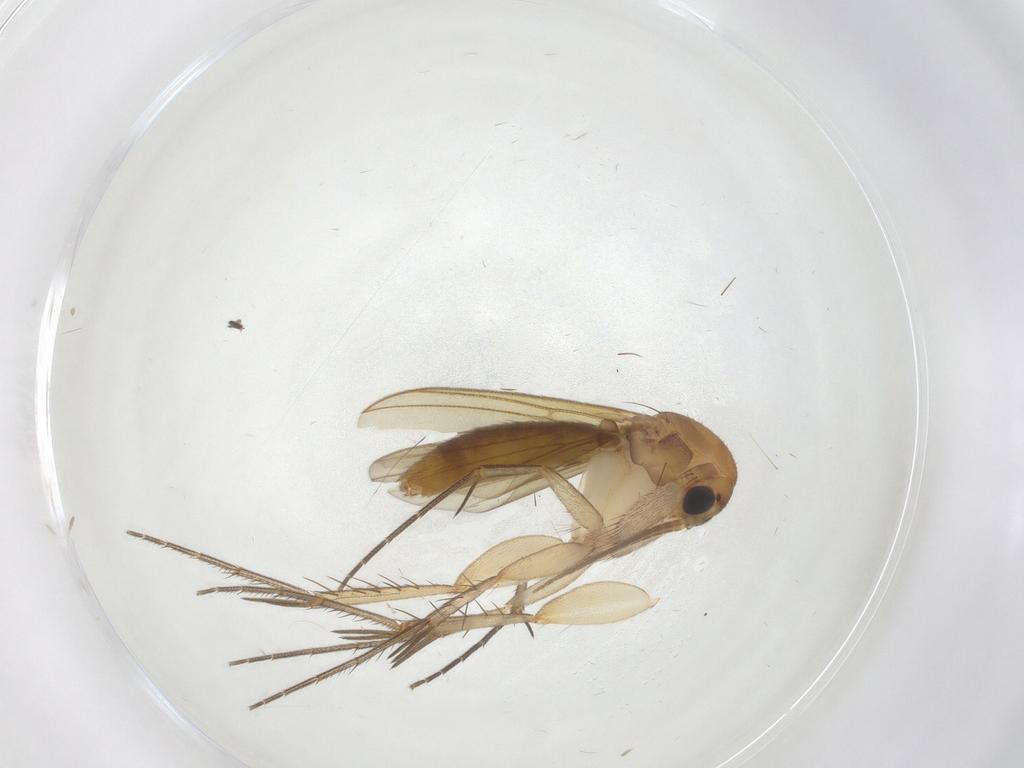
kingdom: Animalia
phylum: Arthropoda
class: Insecta
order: Diptera
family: Mycetophilidae
